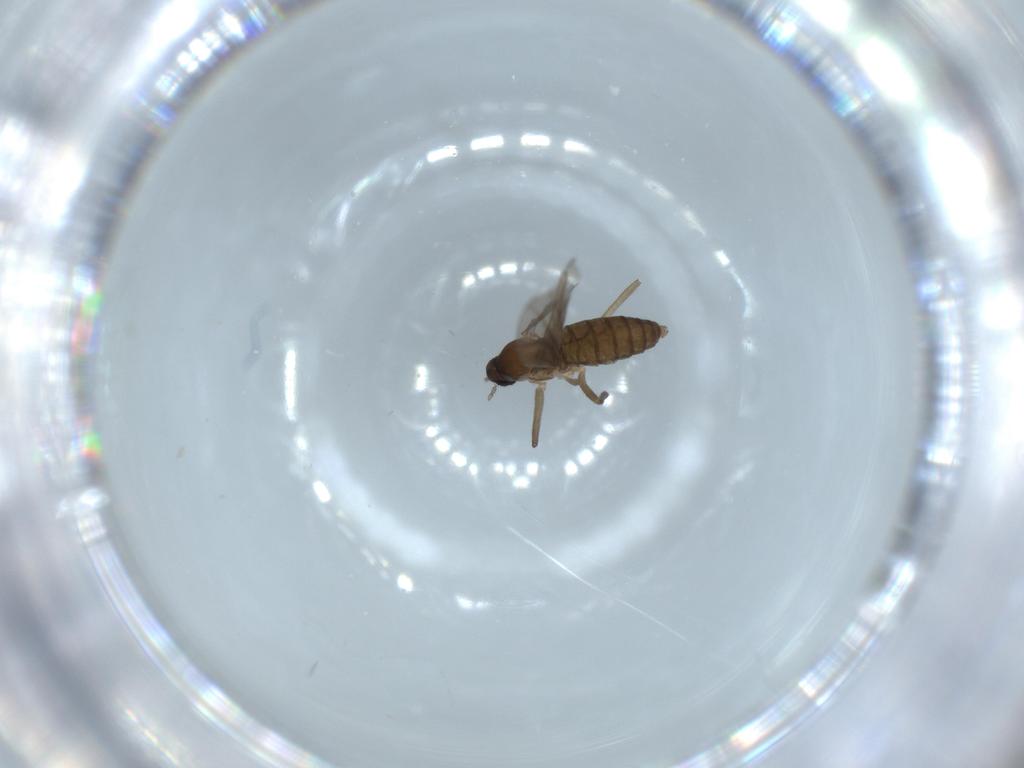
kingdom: Animalia
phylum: Arthropoda
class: Insecta
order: Diptera
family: Cecidomyiidae
